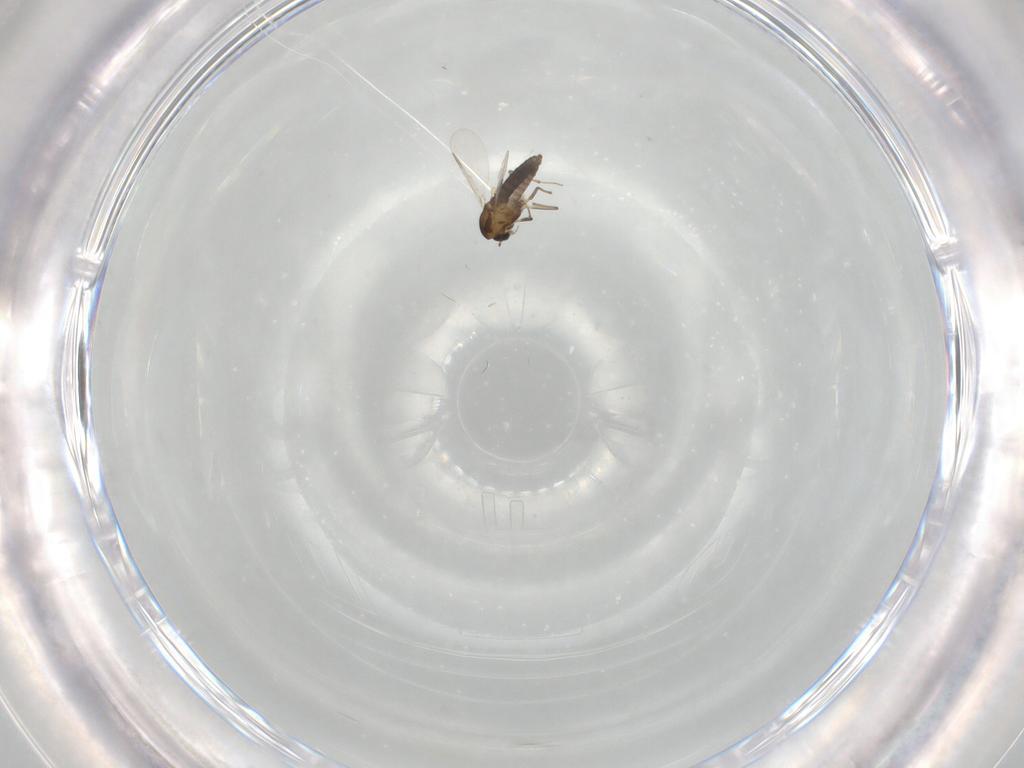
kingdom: Animalia
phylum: Arthropoda
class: Insecta
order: Diptera
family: Chironomidae
